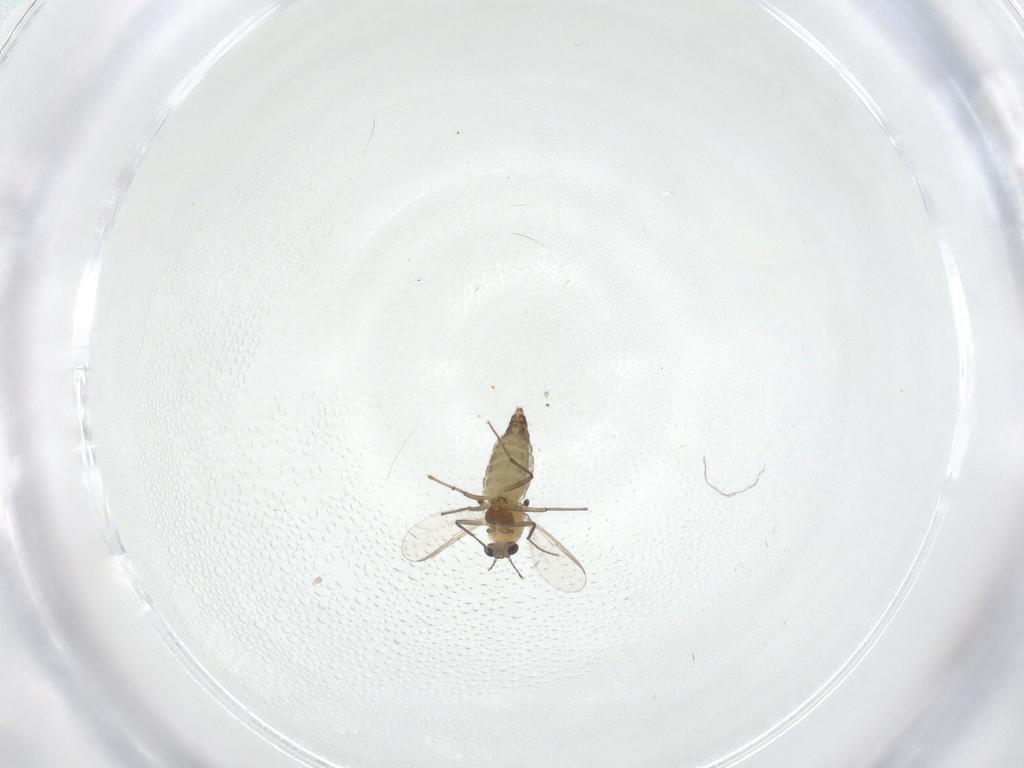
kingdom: Animalia
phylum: Arthropoda
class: Insecta
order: Diptera
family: Chironomidae
